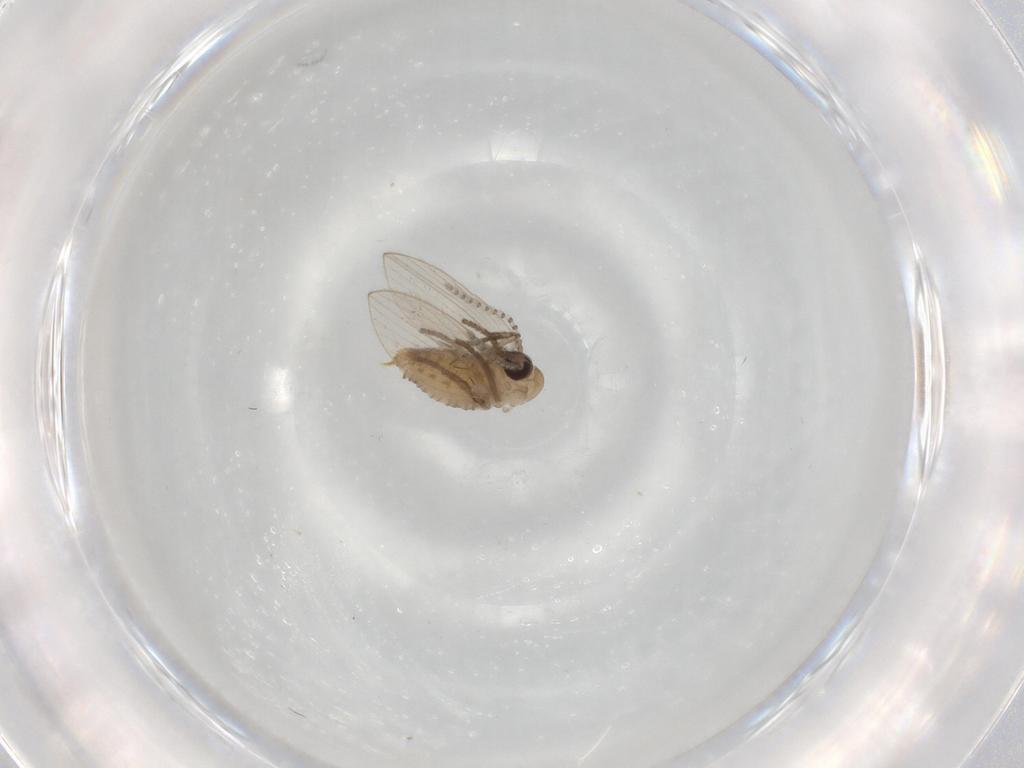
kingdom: Animalia
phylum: Arthropoda
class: Insecta
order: Diptera
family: Psychodidae
